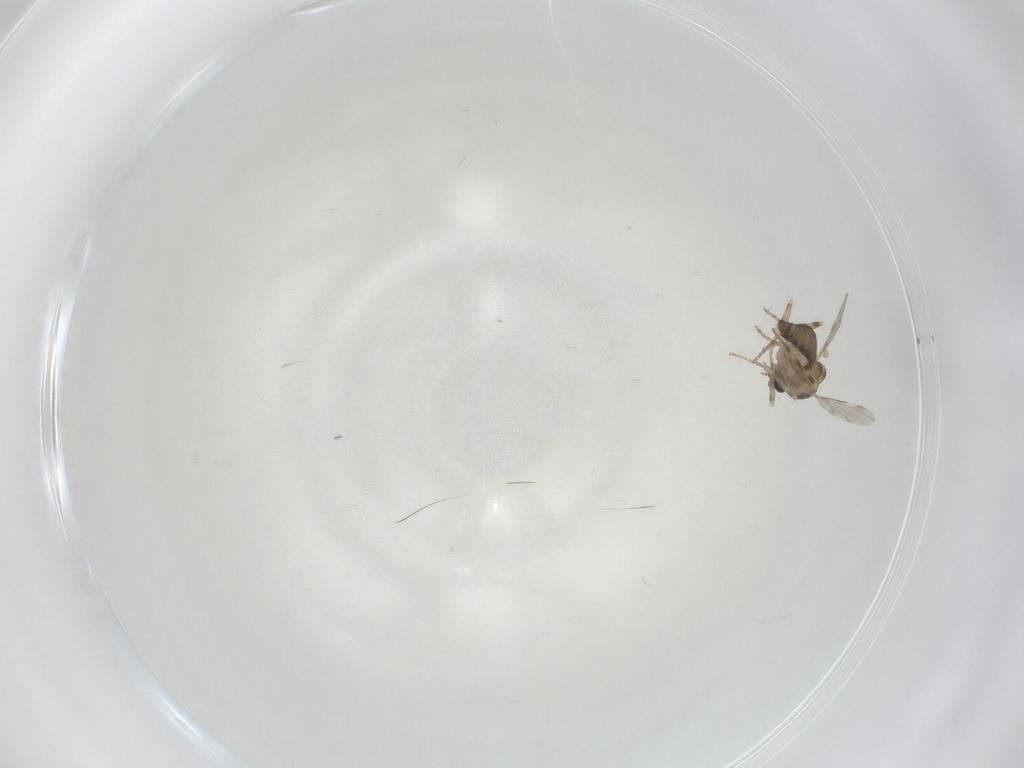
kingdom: Animalia
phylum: Arthropoda
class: Insecta
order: Diptera
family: Ceratopogonidae
